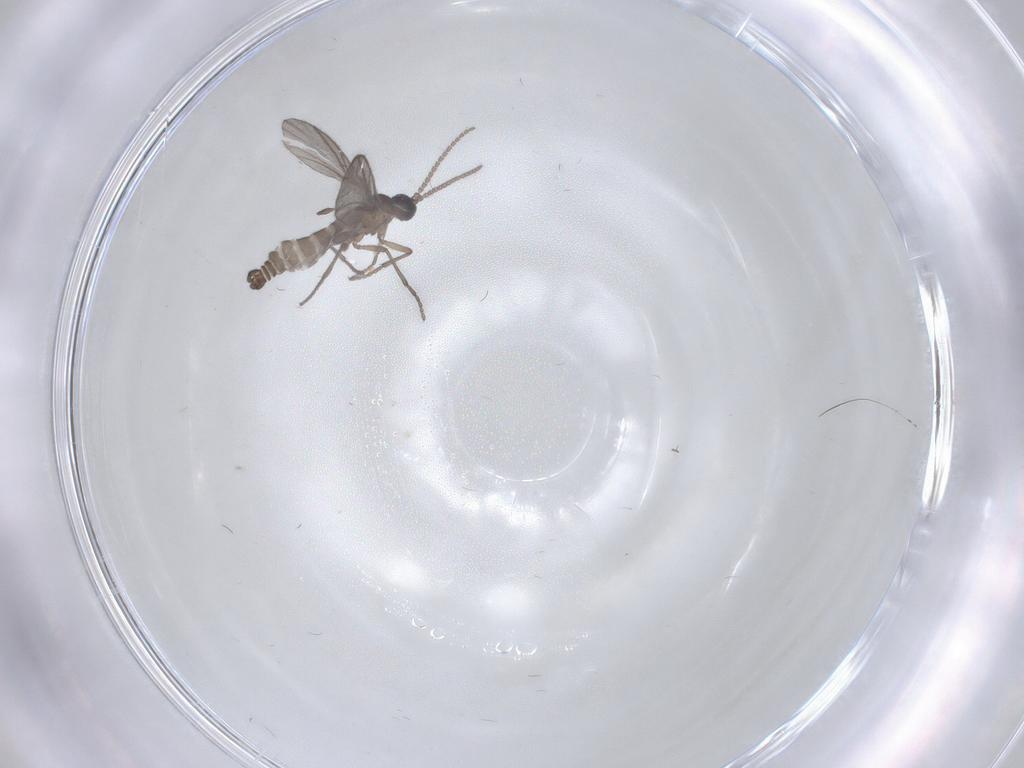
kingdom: Animalia
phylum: Arthropoda
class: Insecta
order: Diptera
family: Sciaridae
